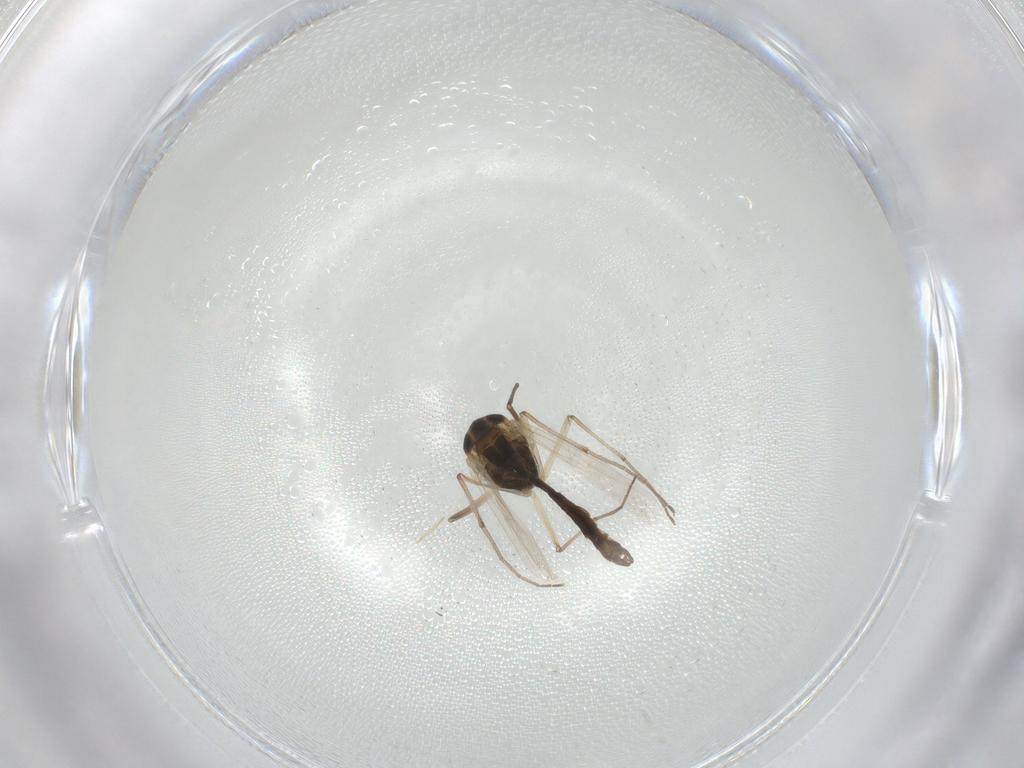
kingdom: Animalia
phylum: Arthropoda
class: Insecta
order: Diptera
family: Chironomidae
